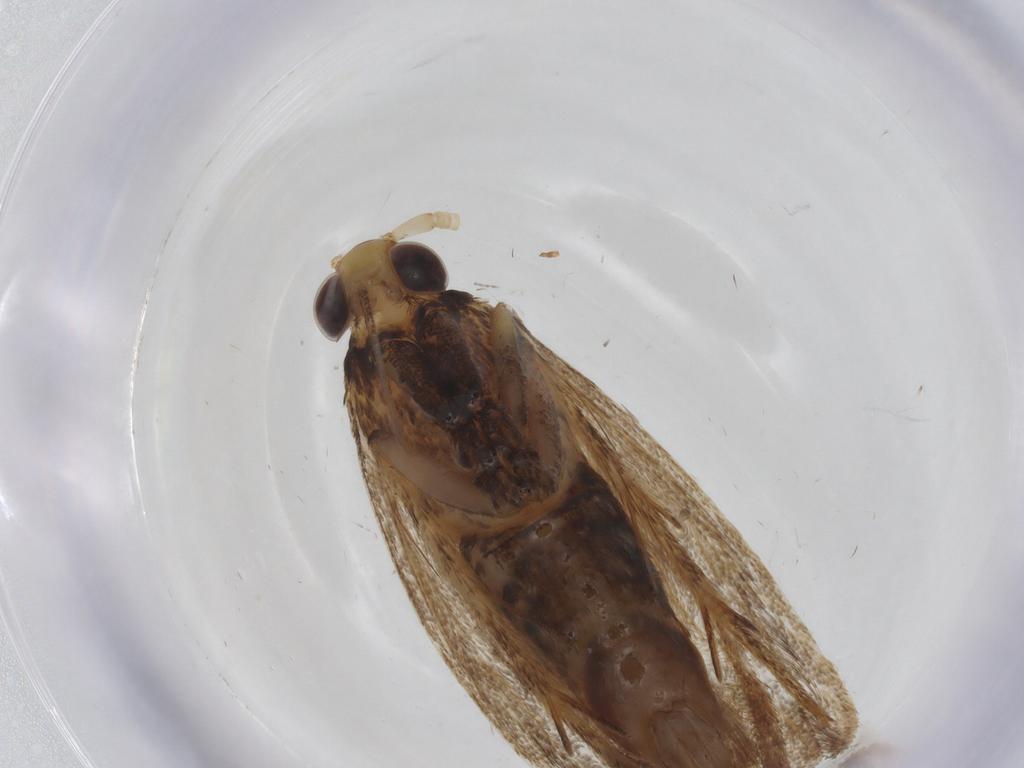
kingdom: Animalia
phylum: Arthropoda
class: Insecta
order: Lepidoptera
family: Lecithoceridae
